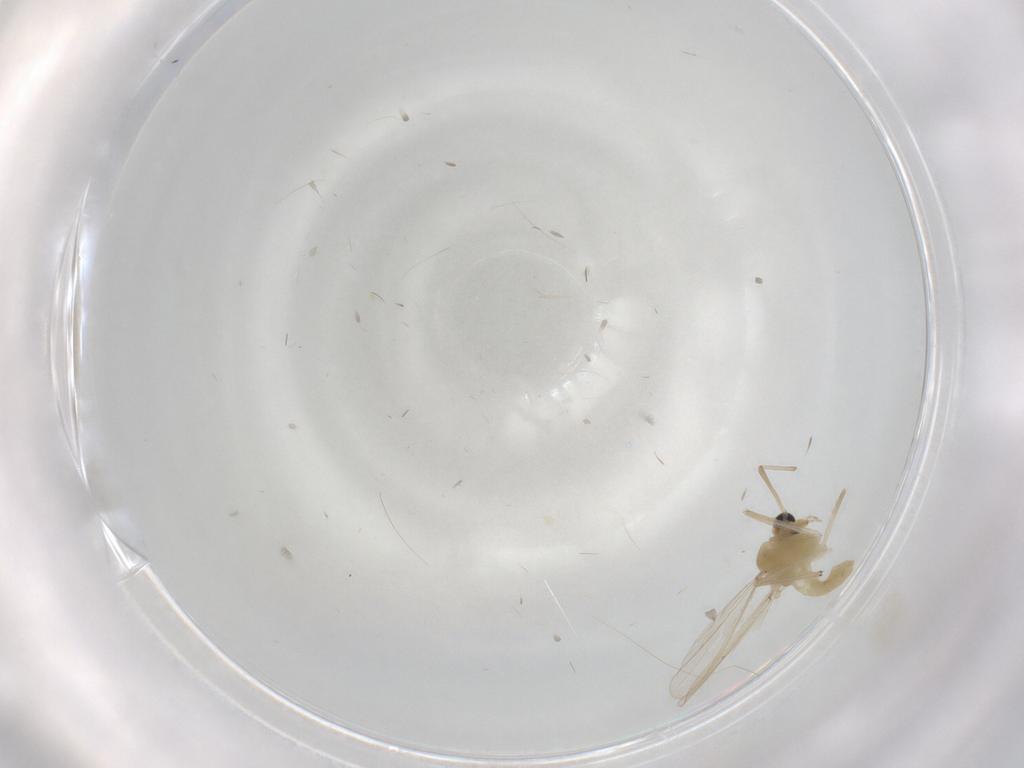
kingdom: Animalia
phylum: Arthropoda
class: Insecta
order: Diptera
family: Chironomidae
